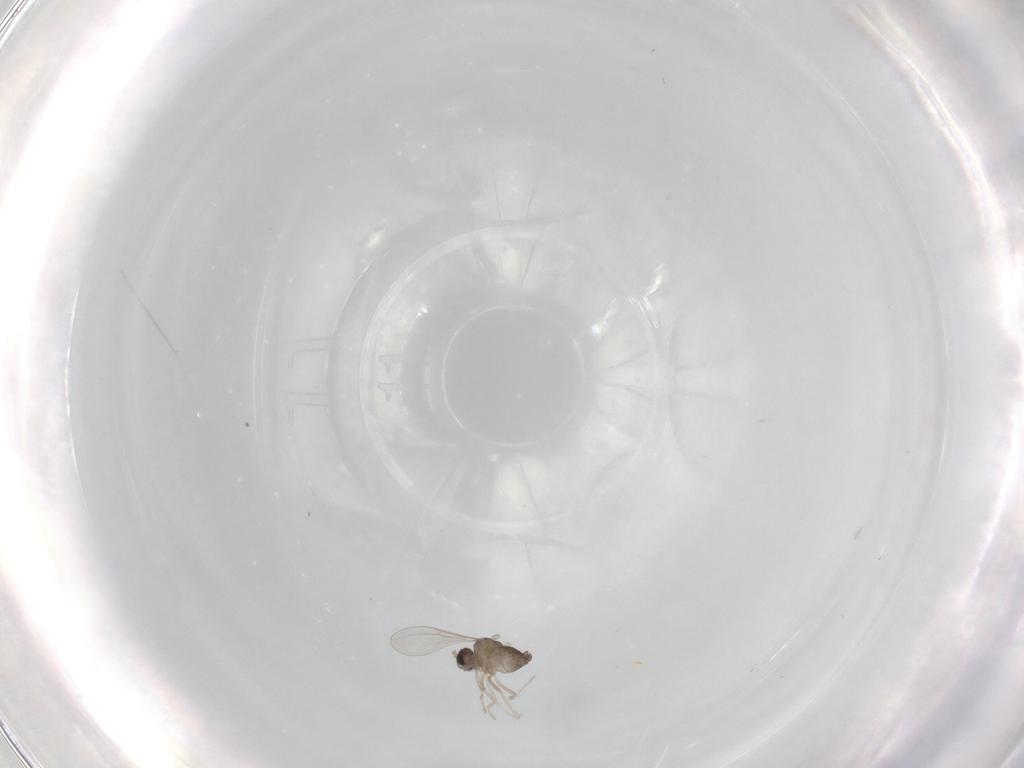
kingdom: Animalia
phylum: Arthropoda
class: Insecta
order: Diptera
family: Cecidomyiidae
